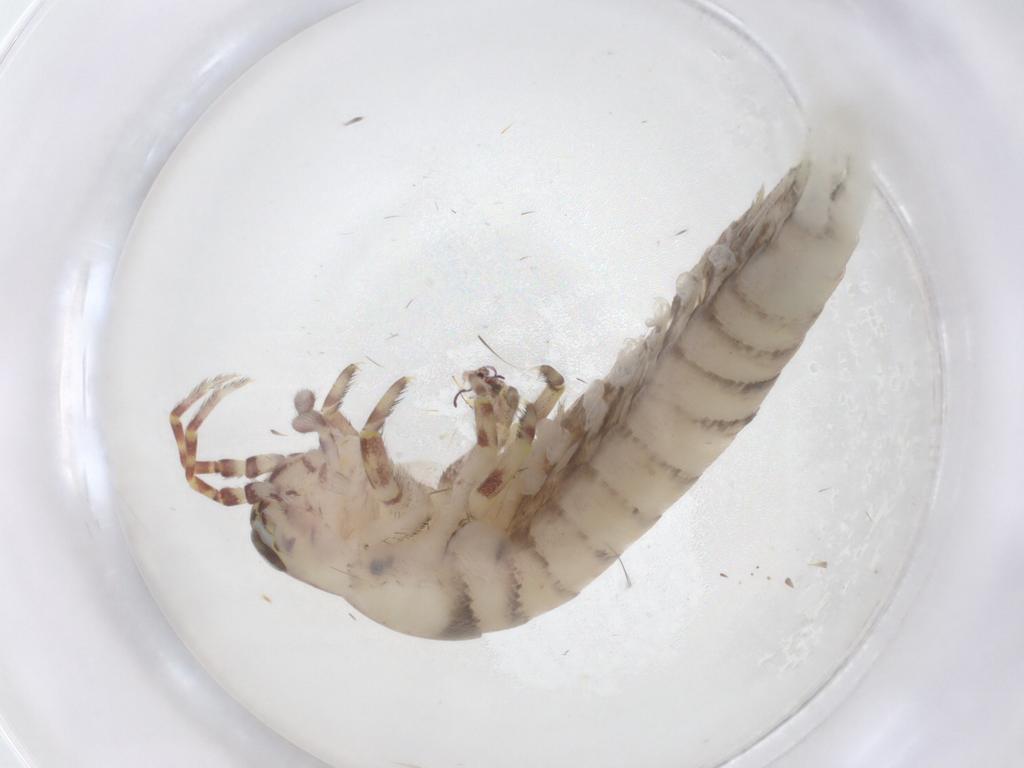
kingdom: Animalia
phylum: Arthropoda
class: Insecta
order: Archaeognatha
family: Meinertellidae
